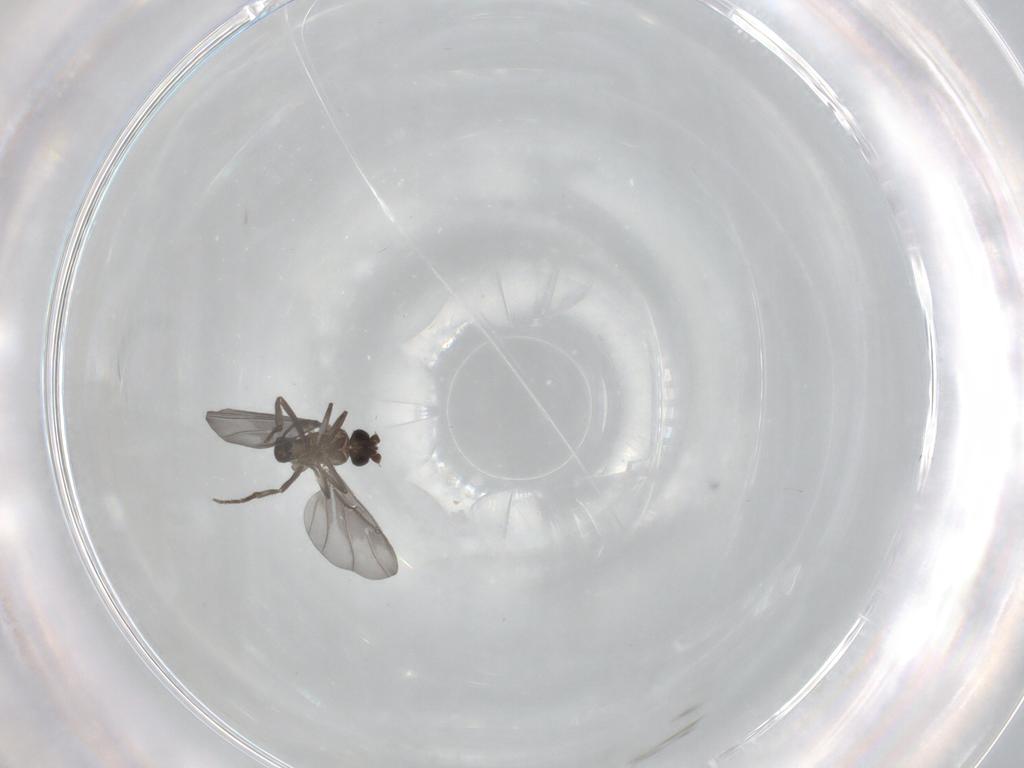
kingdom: Animalia
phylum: Arthropoda
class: Insecta
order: Diptera
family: Phoridae
